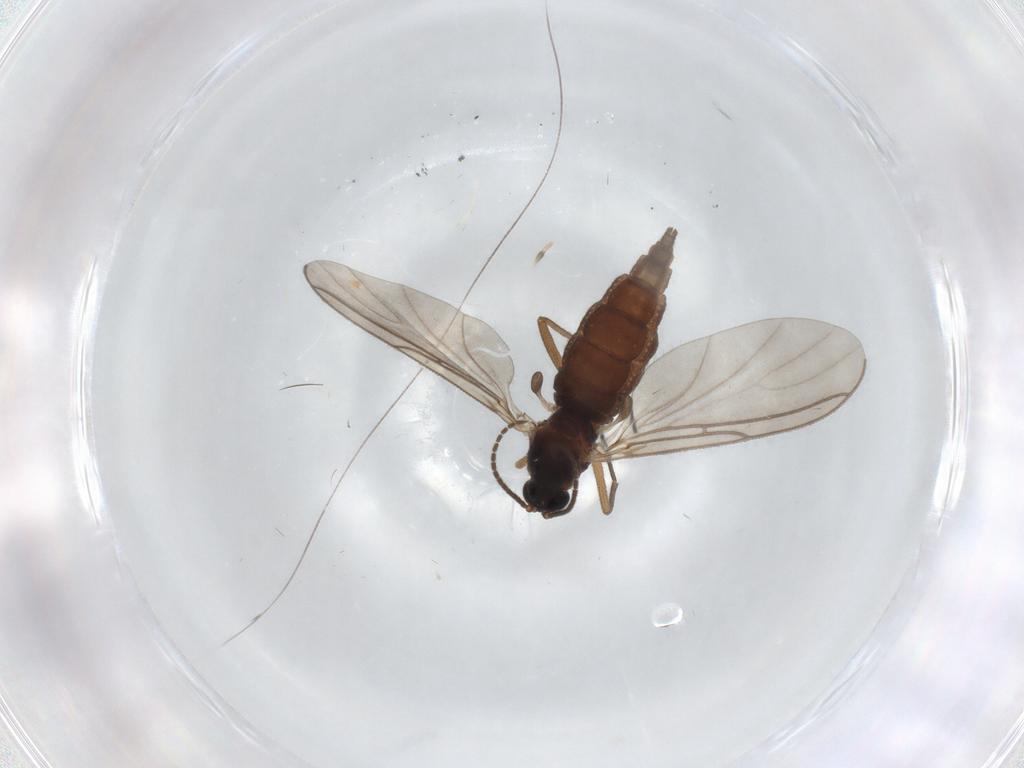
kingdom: Animalia
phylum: Arthropoda
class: Insecta
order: Diptera
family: Sciaridae
